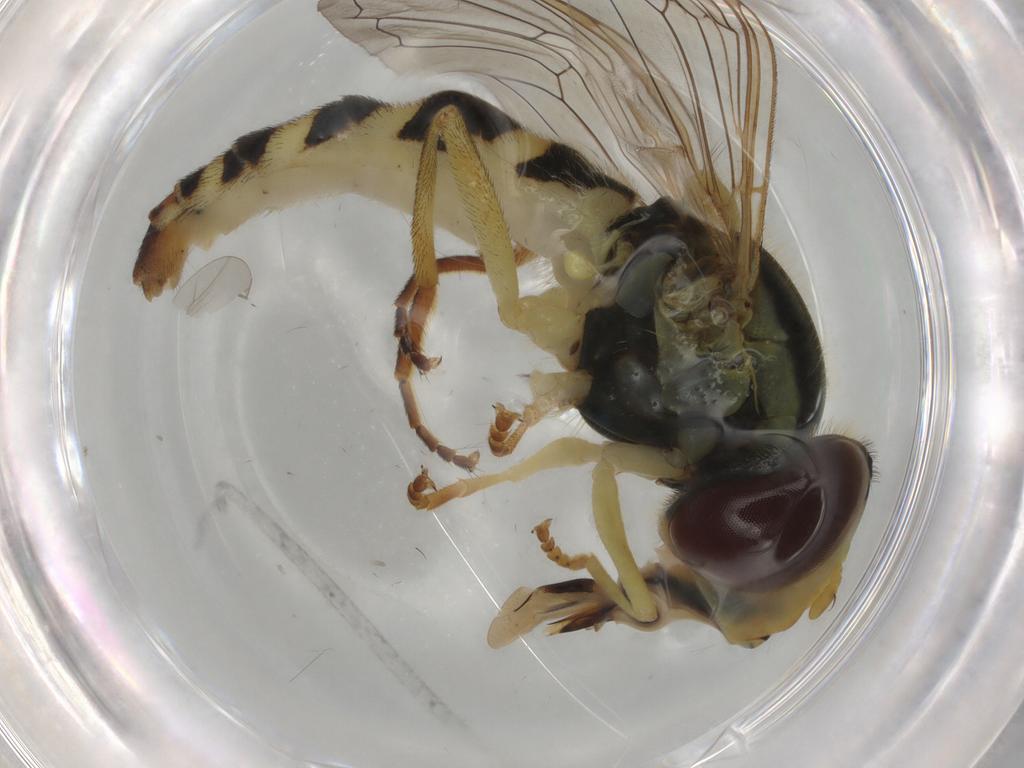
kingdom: Animalia
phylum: Arthropoda
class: Insecta
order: Diptera
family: Syrphidae
